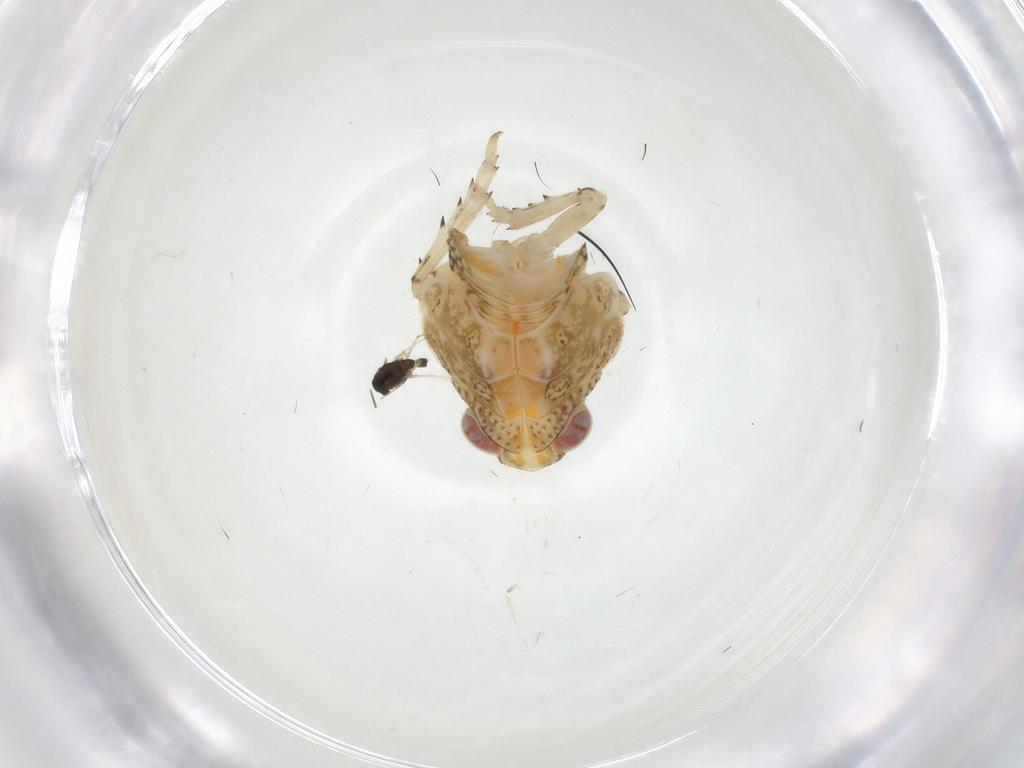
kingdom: Animalia
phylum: Arthropoda
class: Insecta
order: Diptera
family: Chironomidae
